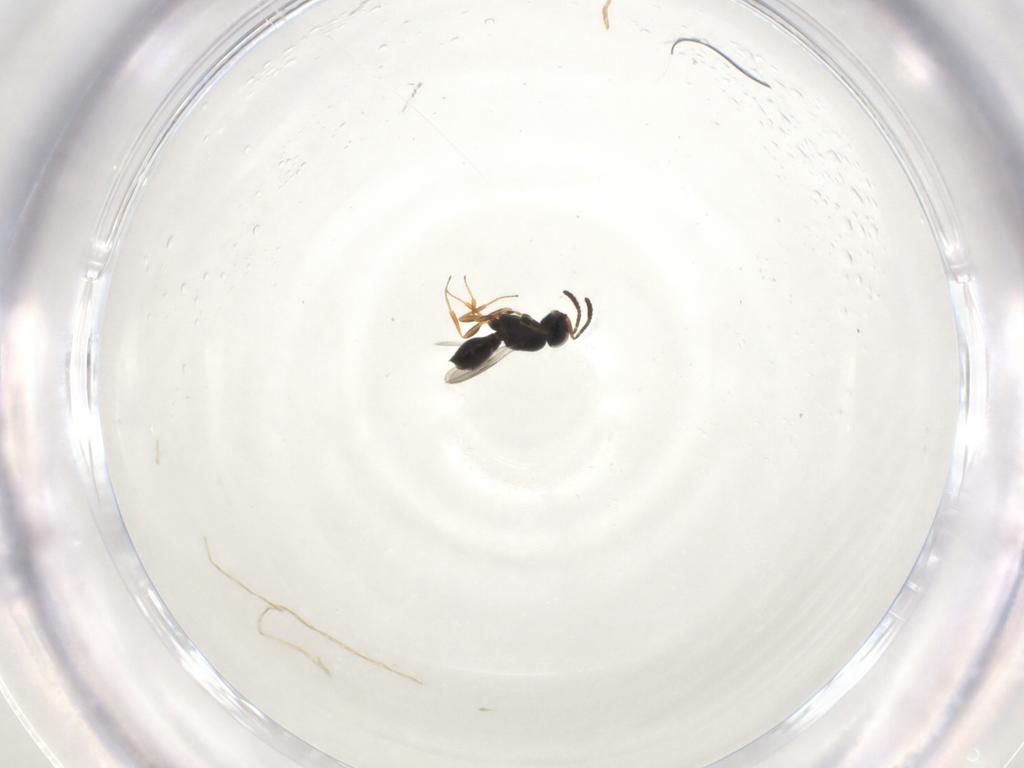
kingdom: Animalia
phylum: Arthropoda
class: Insecta
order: Hymenoptera
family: Scelionidae
